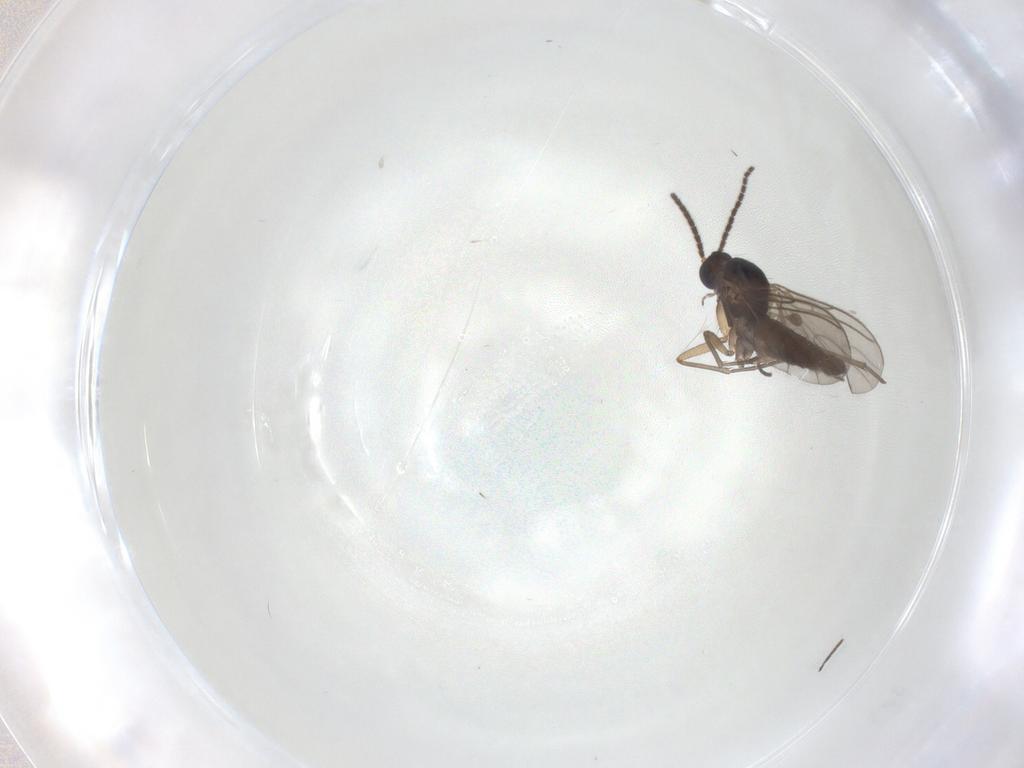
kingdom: Animalia
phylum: Arthropoda
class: Insecta
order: Diptera
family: Sciaridae
